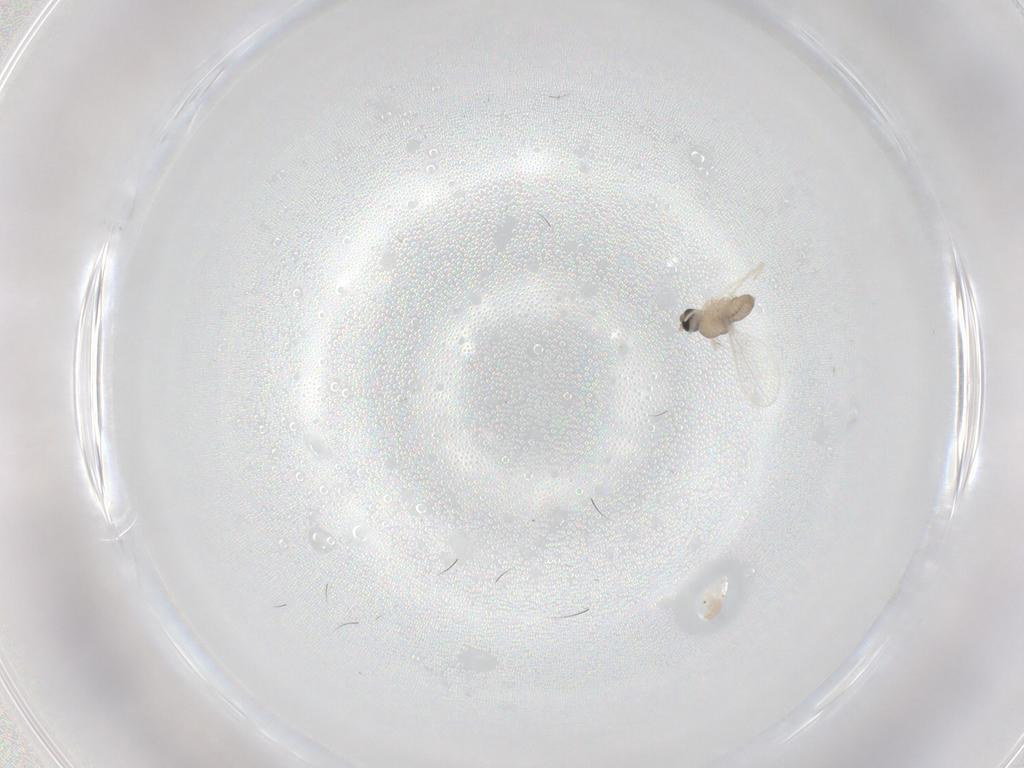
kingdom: Animalia
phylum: Arthropoda
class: Insecta
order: Diptera
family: Cecidomyiidae
